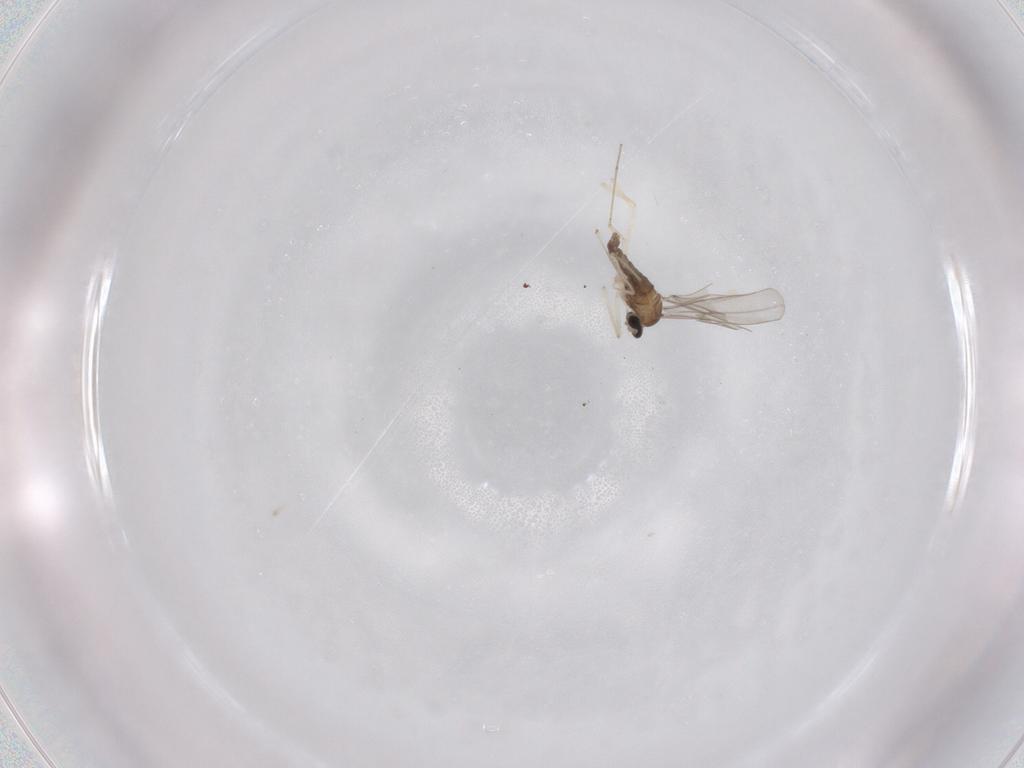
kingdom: Animalia
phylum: Arthropoda
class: Insecta
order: Diptera
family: Cecidomyiidae
